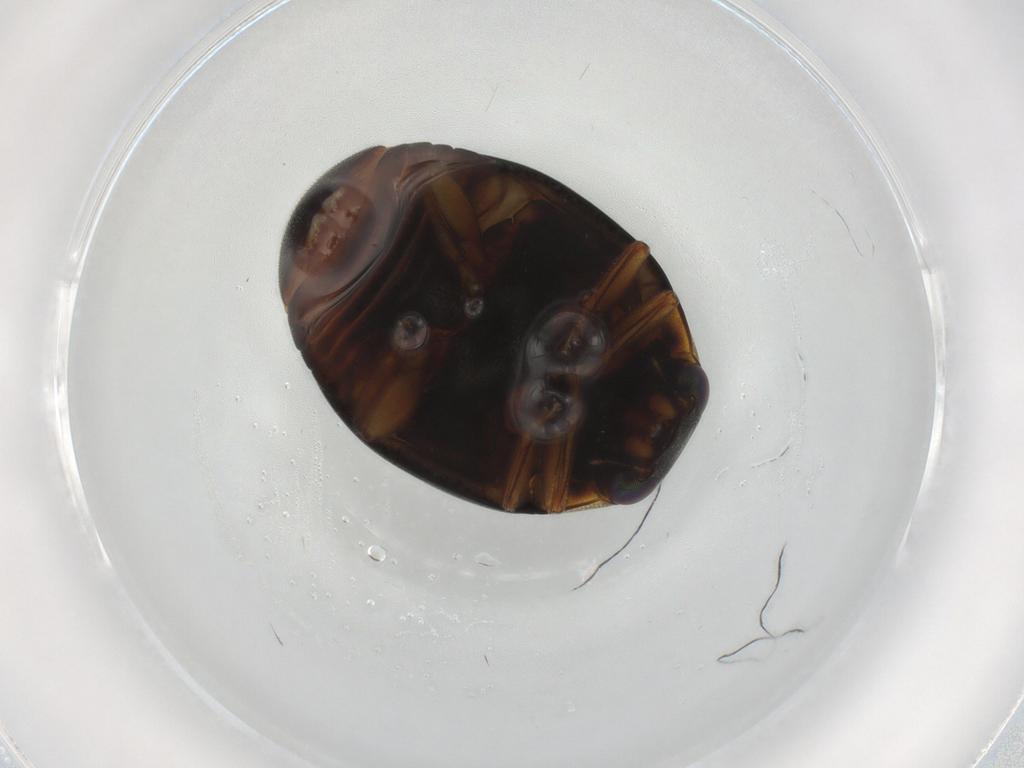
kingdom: Animalia
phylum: Arthropoda
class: Insecta
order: Coleoptera
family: Coccinellidae
